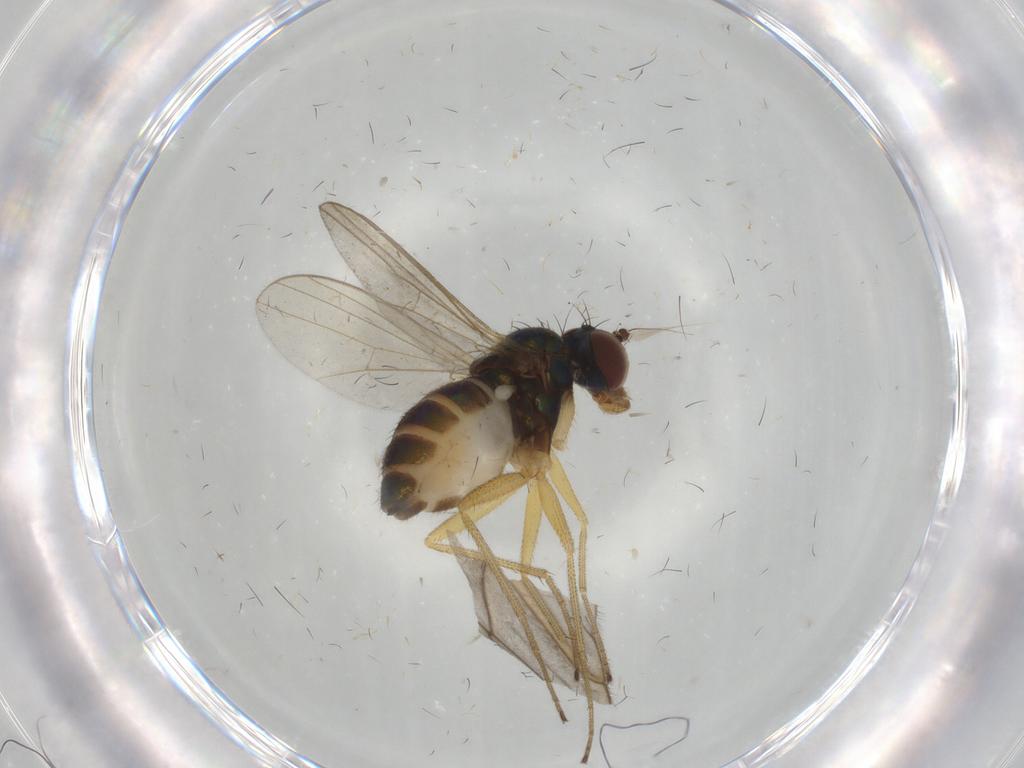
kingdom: Animalia
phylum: Arthropoda
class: Insecta
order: Diptera
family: Dolichopodidae
